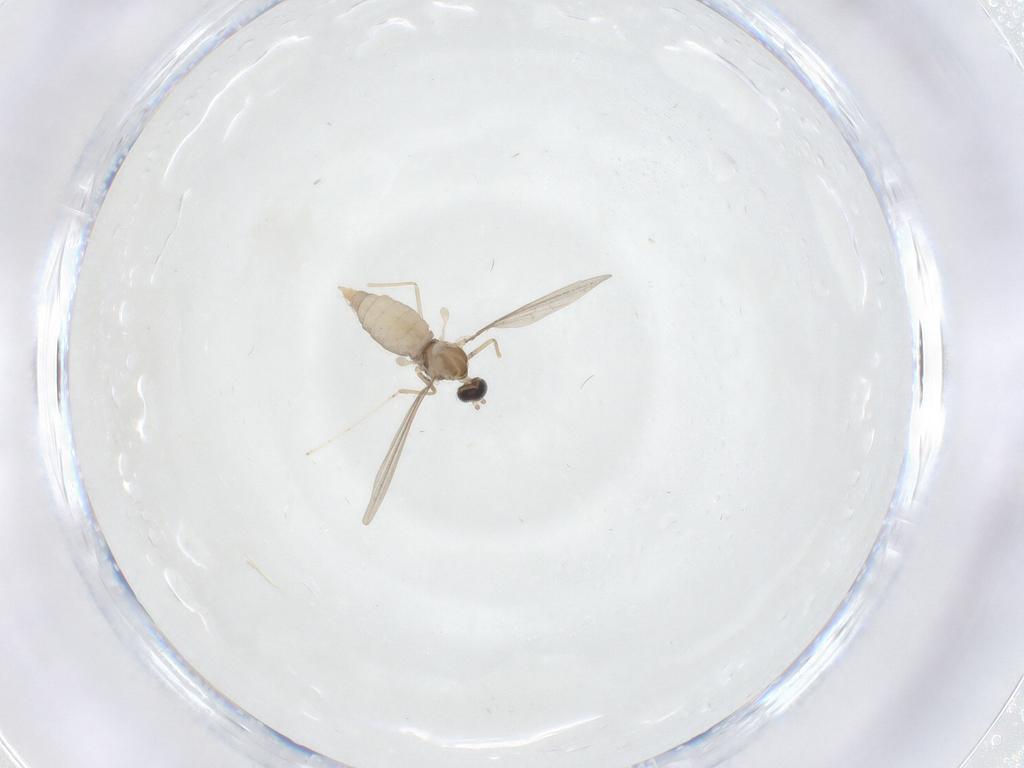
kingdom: Animalia
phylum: Arthropoda
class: Insecta
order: Diptera
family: Cecidomyiidae
